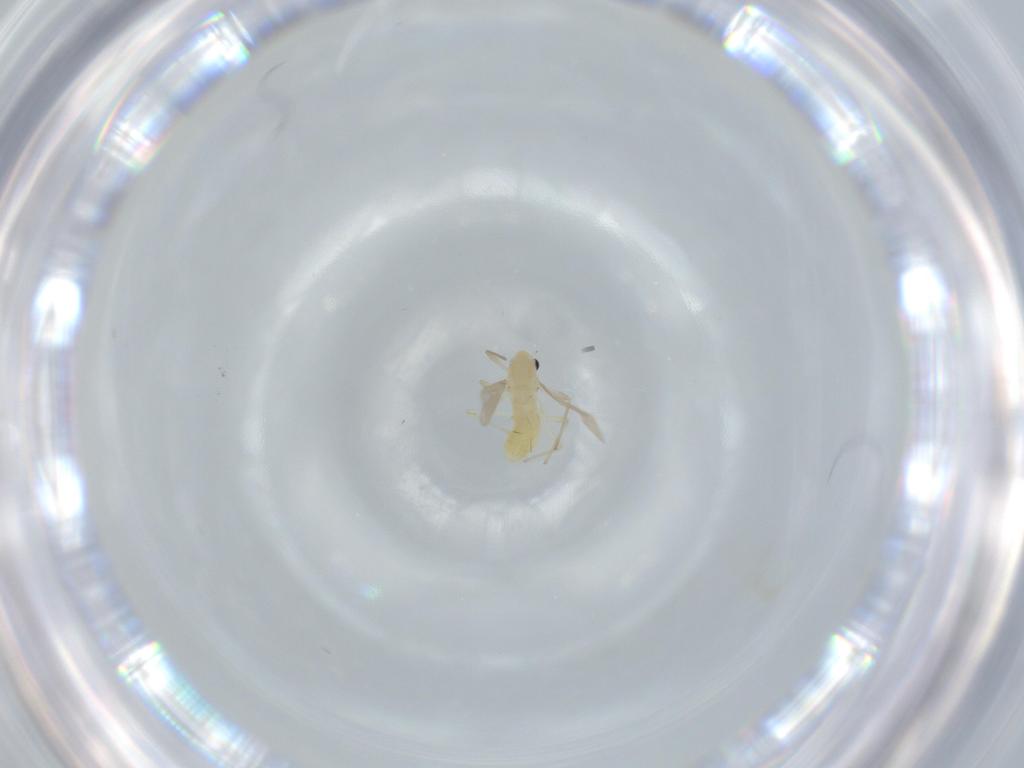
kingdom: Animalia
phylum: Arthropoda
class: Insecta
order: Diptera
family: Chironomidae
